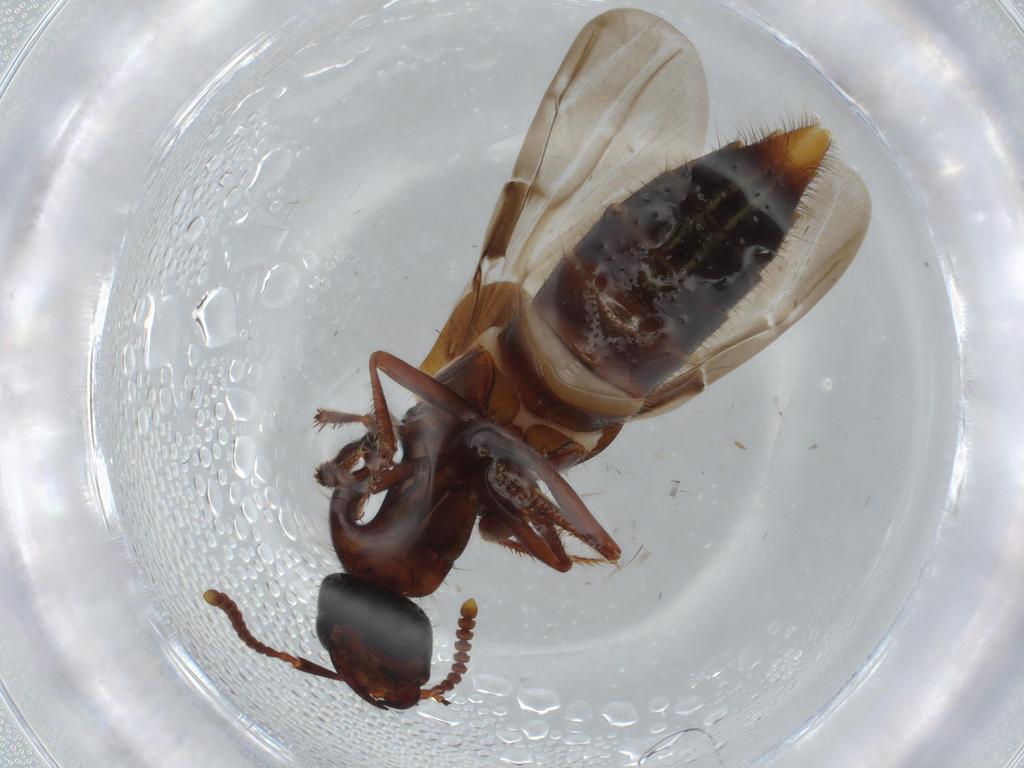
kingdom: Animalia
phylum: Arthropoda
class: Insecta
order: Coleoptera
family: Staphylinidae
